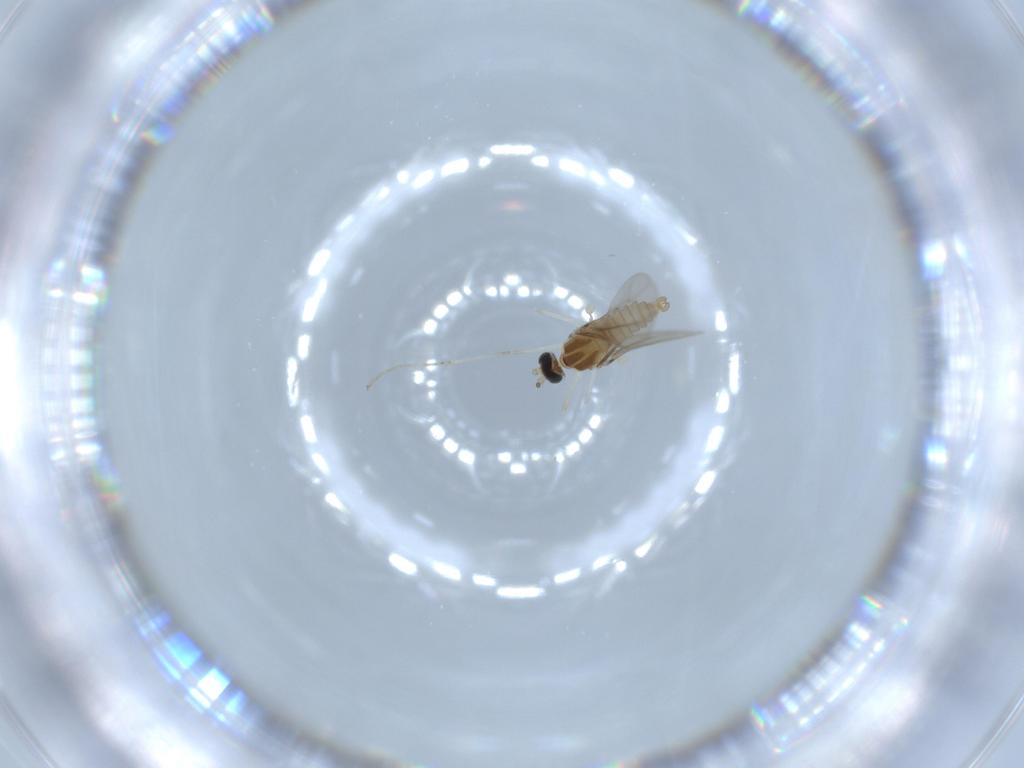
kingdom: Animalia
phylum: Arthropoda
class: Insecta
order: Diptera
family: Cecidomyiidae
